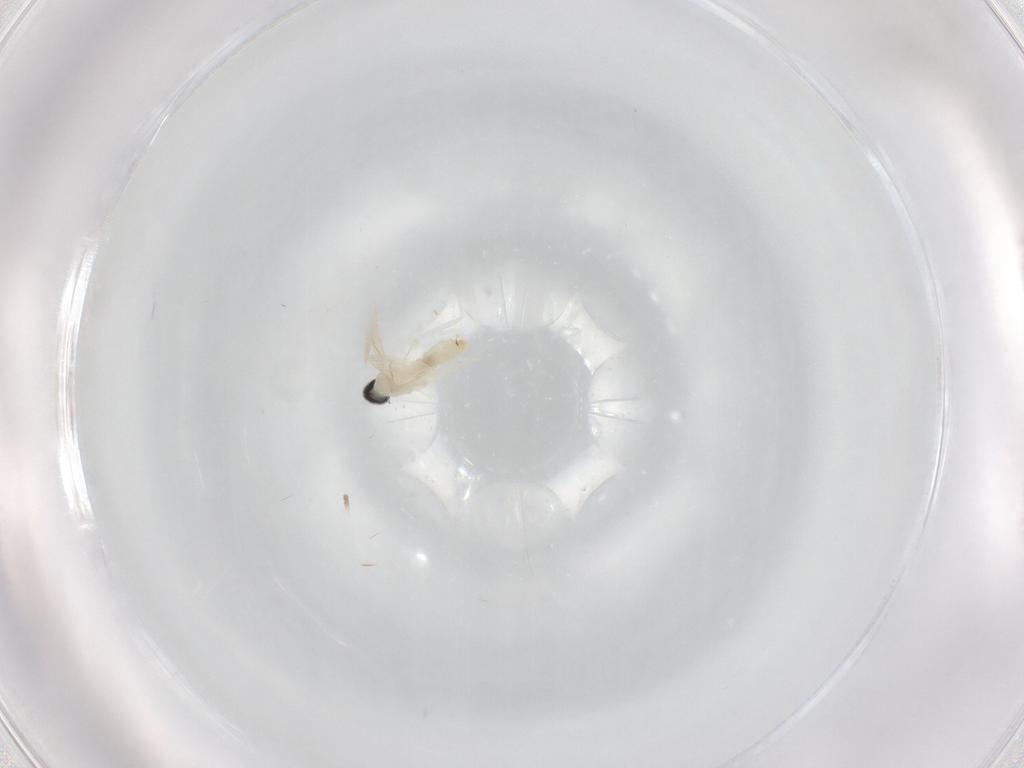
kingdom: Animalia
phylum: Arthropoda
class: Insecta
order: Diptera
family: Cecidomyiidae
